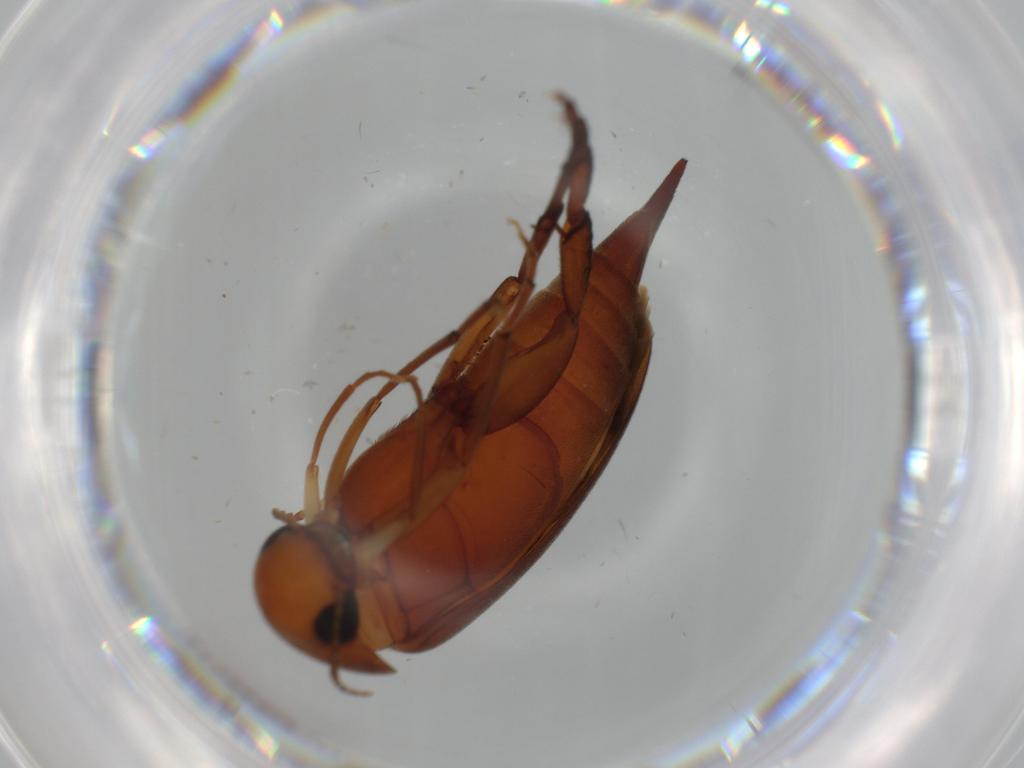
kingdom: Animalia
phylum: Arthropoda
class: Insecta
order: Coleoptera
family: Mordellidae
